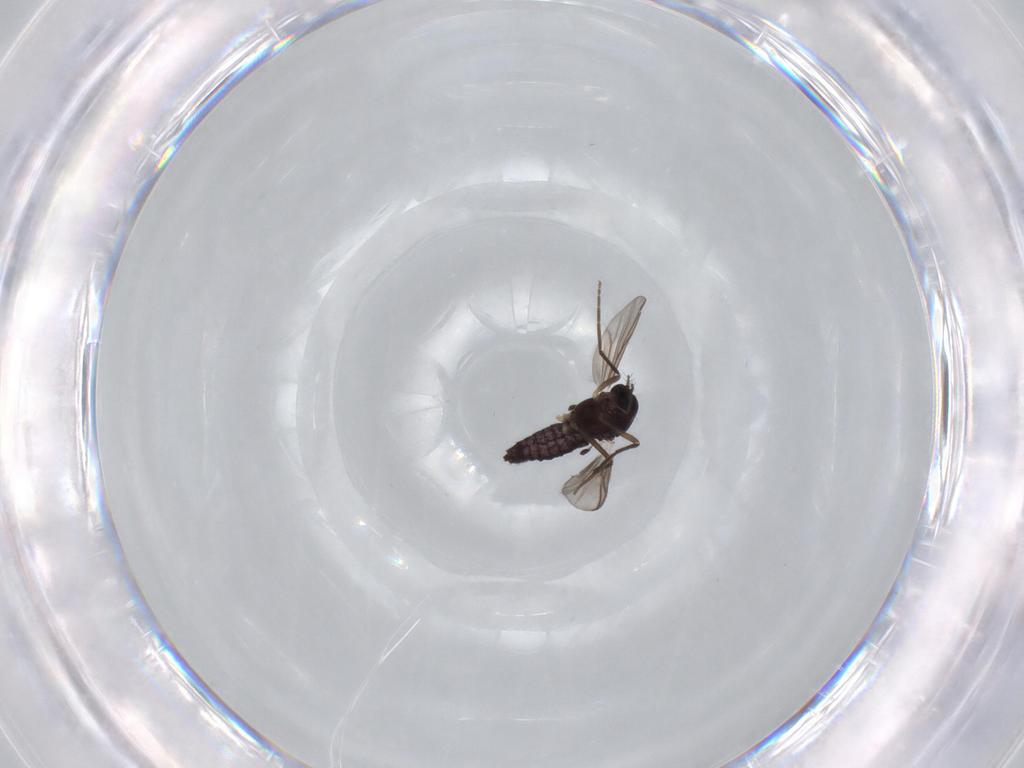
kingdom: Animalia
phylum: Arthropoda
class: Insecta
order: Diptera
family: Chironomidae
